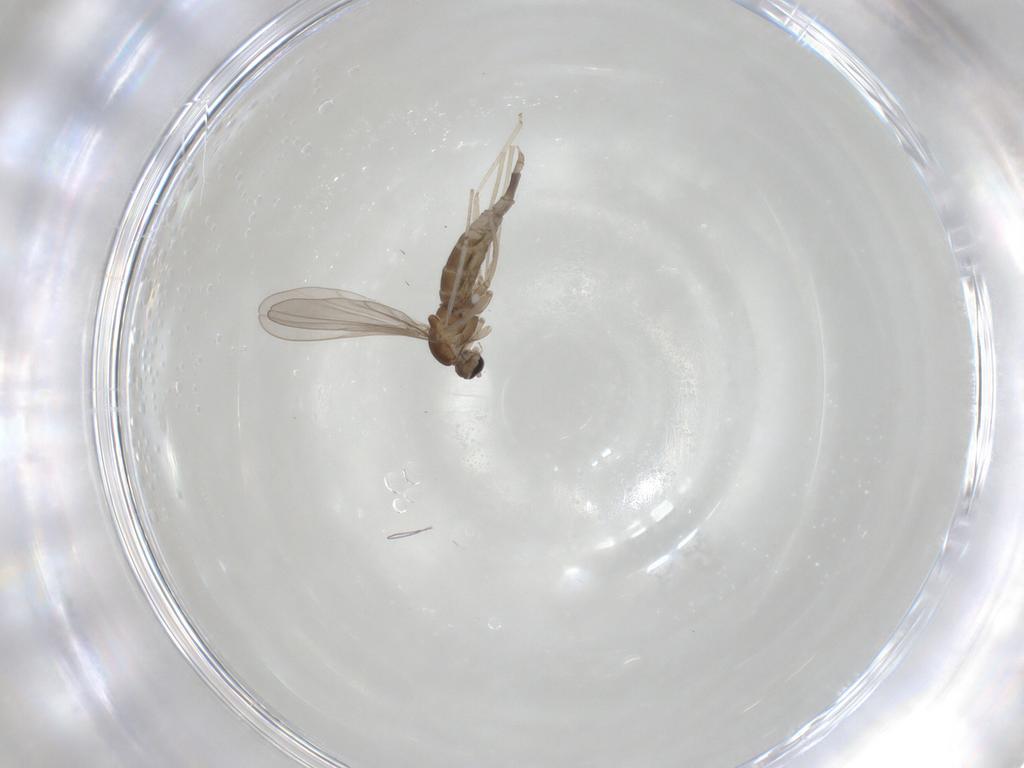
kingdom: Animalia
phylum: Arthropoda
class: Insecta
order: Diptera
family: Cecidomyiidae
